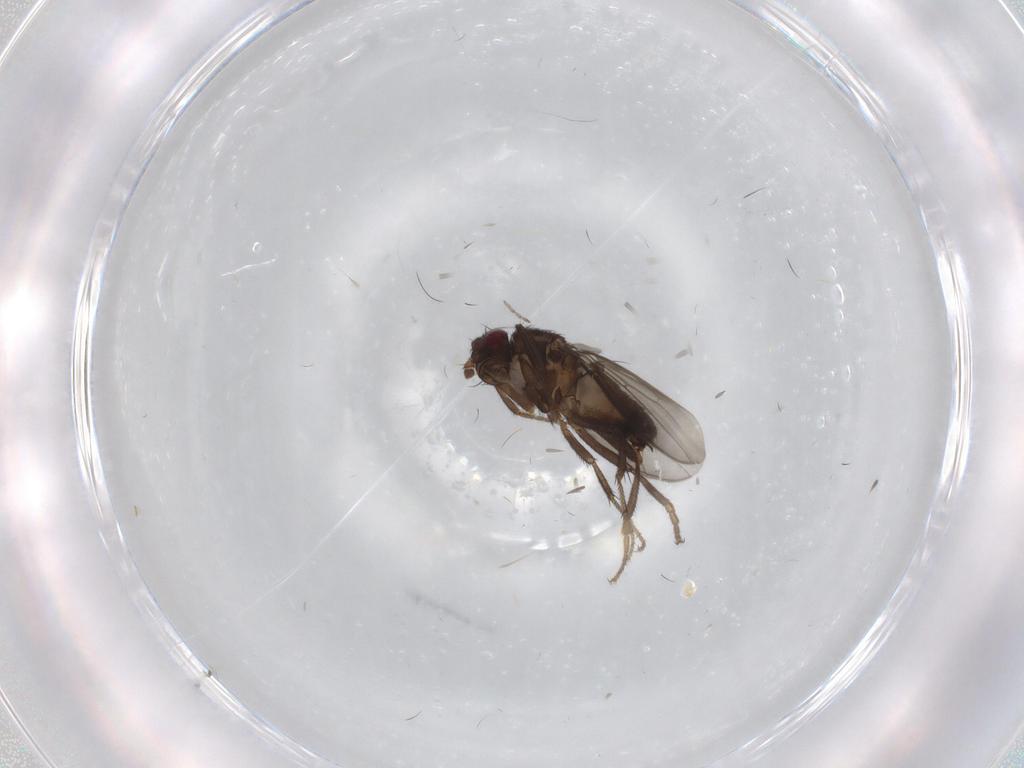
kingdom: Animalia
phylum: Arthropoda
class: Insecta
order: Diptera
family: Chironomidae
